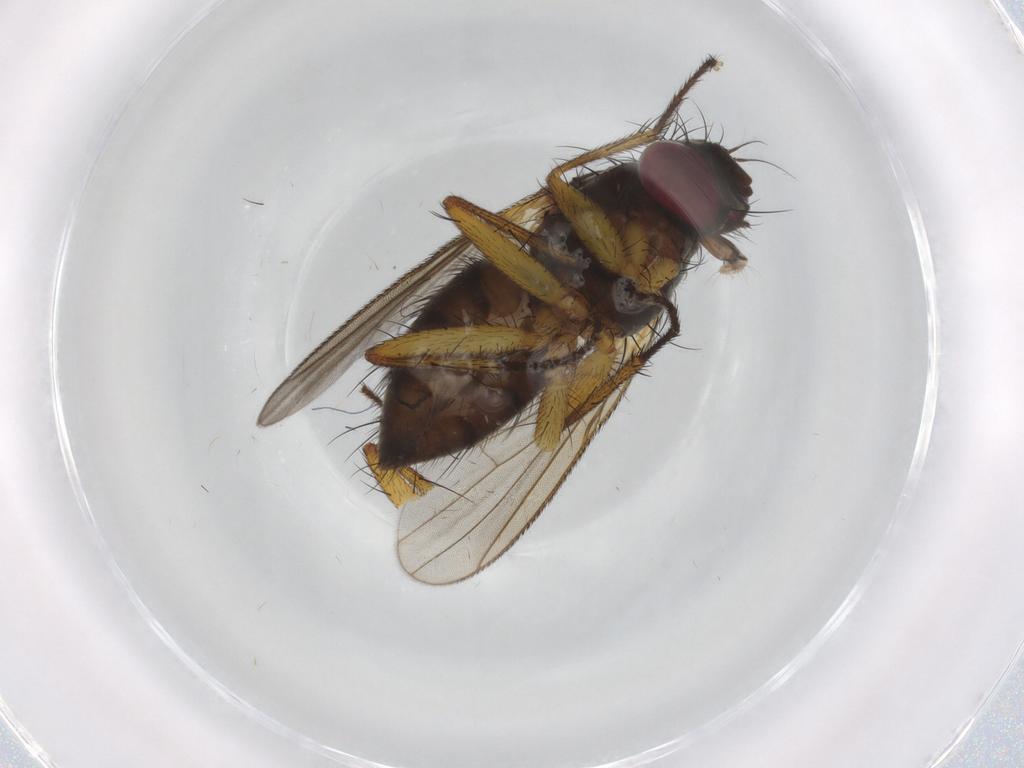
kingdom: Animalia
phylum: Arthropoda
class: Insecta
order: Diptera
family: Muscidae
